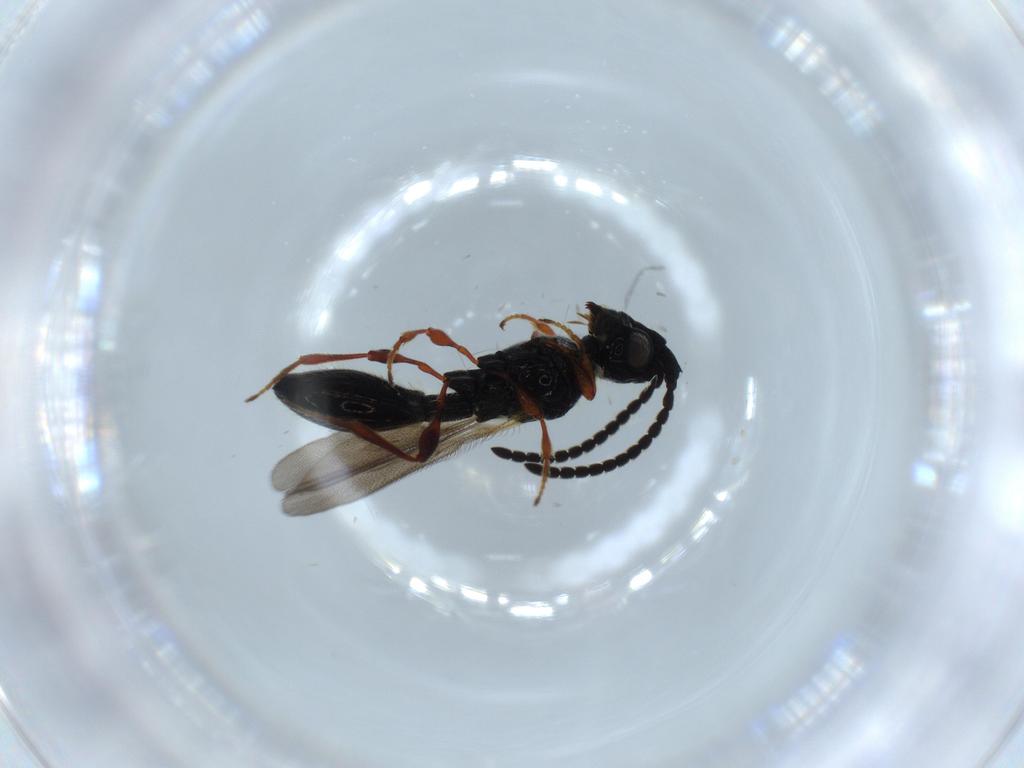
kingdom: Animalia
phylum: Arthropoda
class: Insecta
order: Hymenoptera
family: Diapriidae
